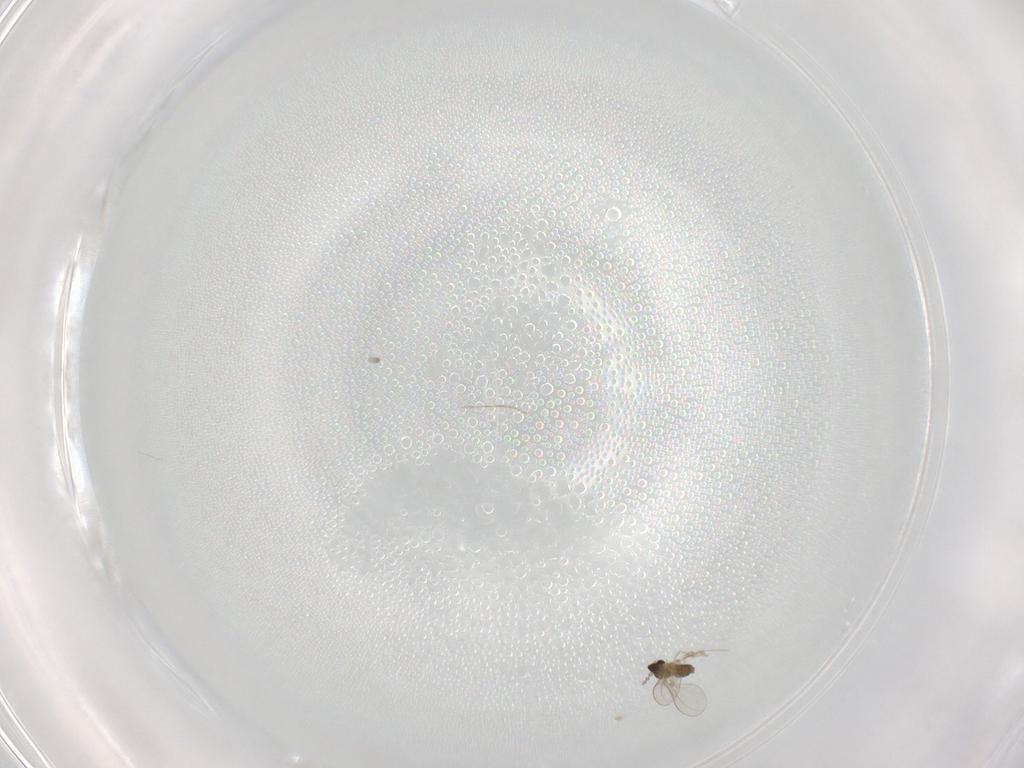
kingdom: Animalia
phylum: Arthropoda
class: Insecta
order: Diptera
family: Cecidomyiidae
